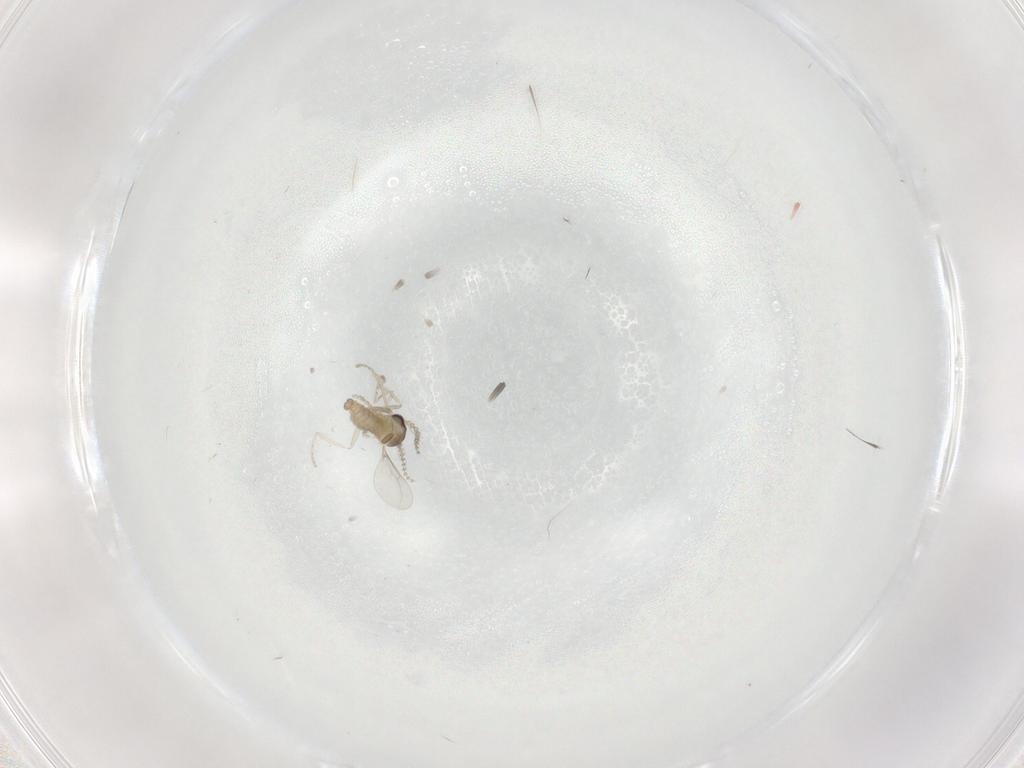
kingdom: Animalia
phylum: Arthropoda
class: Insecta
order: Diptera
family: Cecidomyiidae
